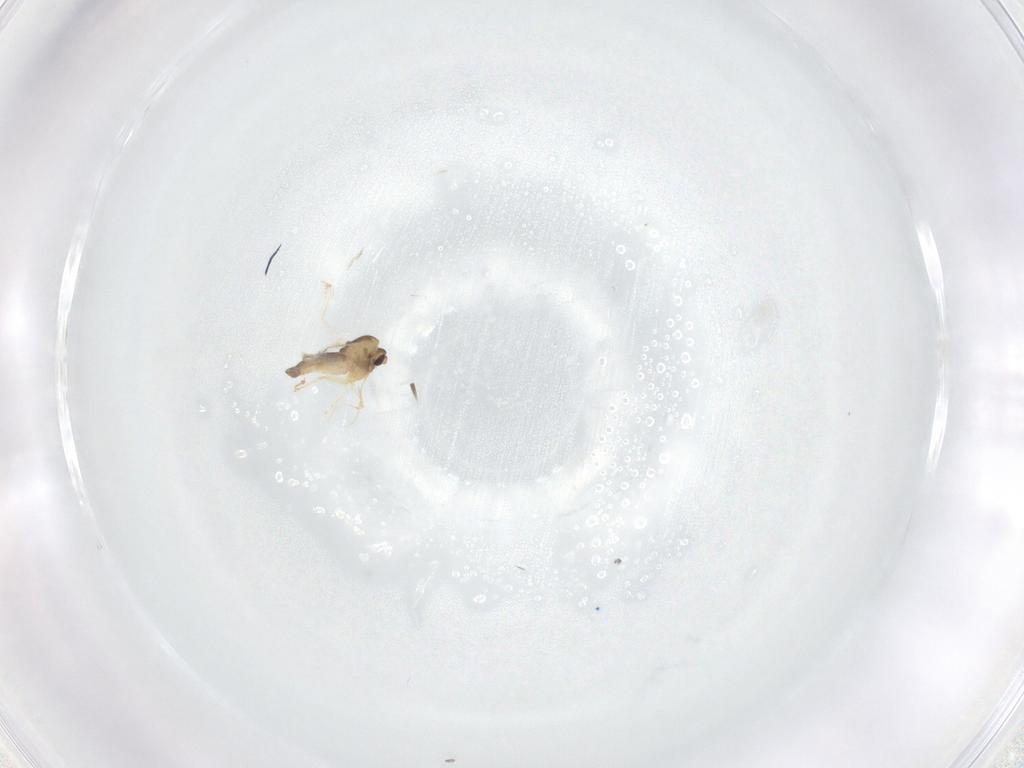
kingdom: Animalia
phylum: Arthropoda
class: Insecta
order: Diptera
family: Chironomidae
